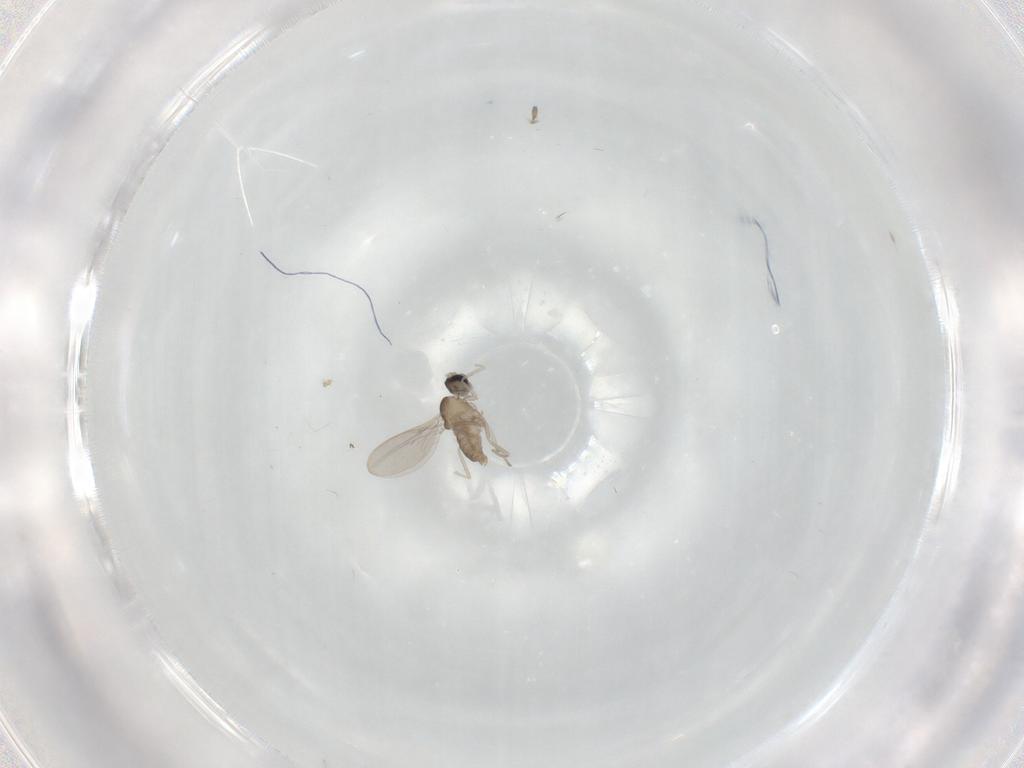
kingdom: Animalia
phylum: Arthropoda
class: Insecta
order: Diptera
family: Cecidomyiidae
